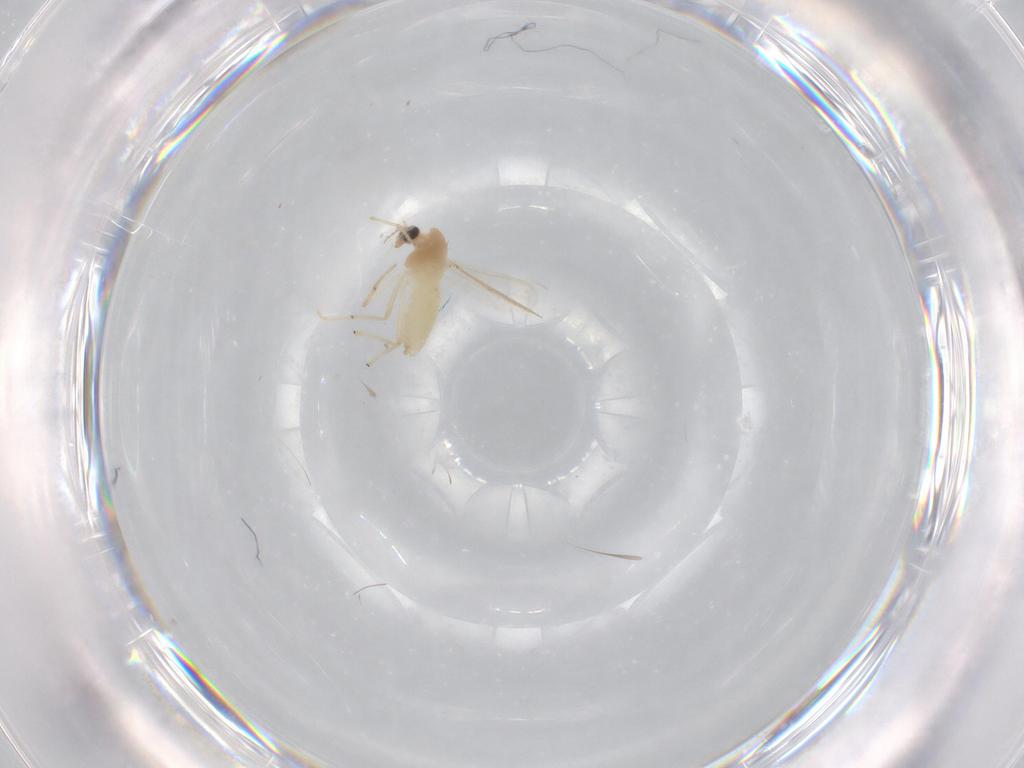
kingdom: Animalia
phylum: Arthropoda
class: Insecta
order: Diptera
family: Chironomidae
